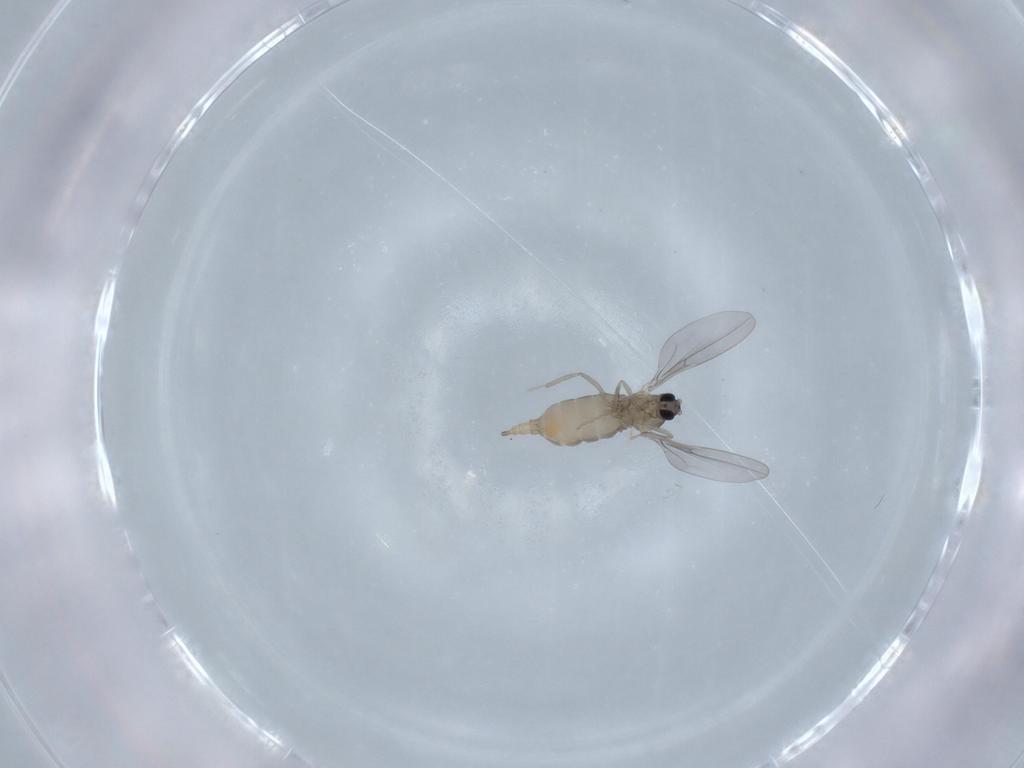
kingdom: Animalia
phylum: Arthropoda
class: Insecta
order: Diptera
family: Cecidomyiidae
